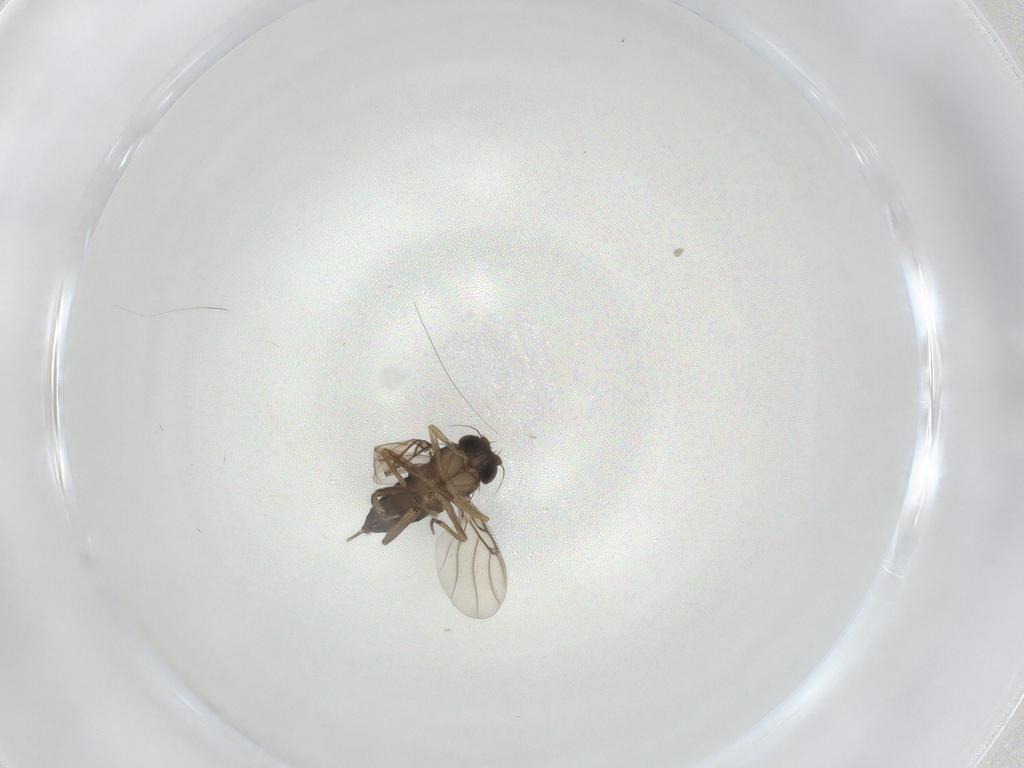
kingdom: Animalia
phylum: Arthropoda
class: Insecta
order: Diptera
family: Phoridae
